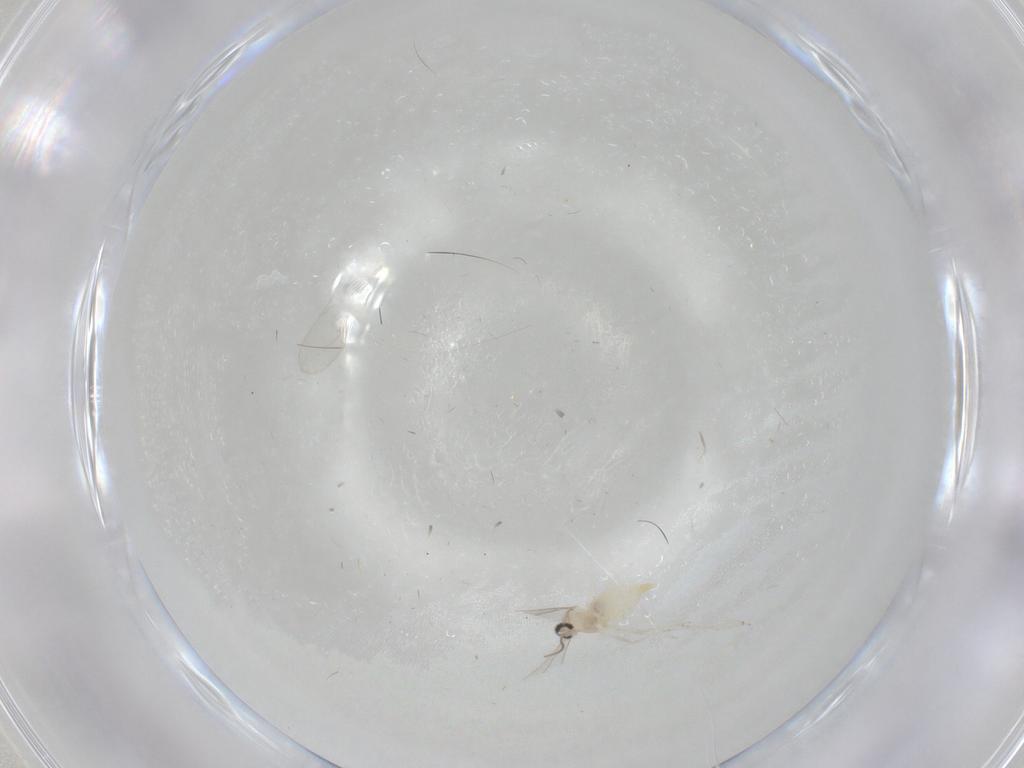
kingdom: Animalia
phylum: Arthropoda
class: Insecta
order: Diptera
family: Cecidomyiidae
